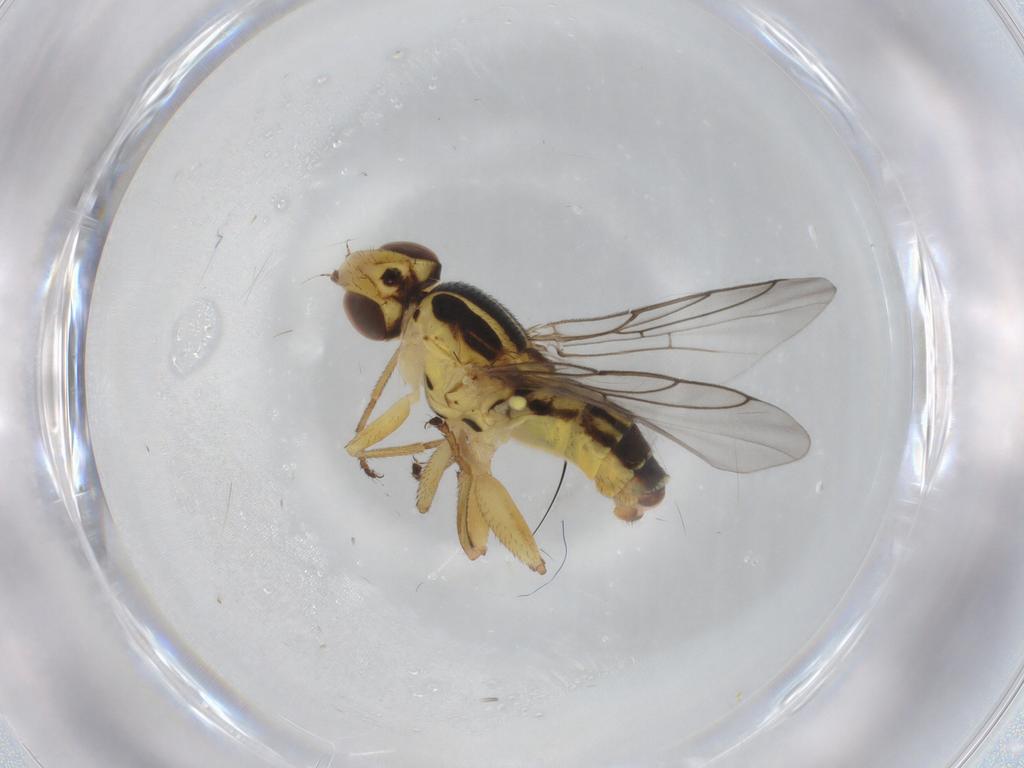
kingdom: Animalia
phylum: Arthropoda
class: Insecta
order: Diptera
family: Chloropidae
